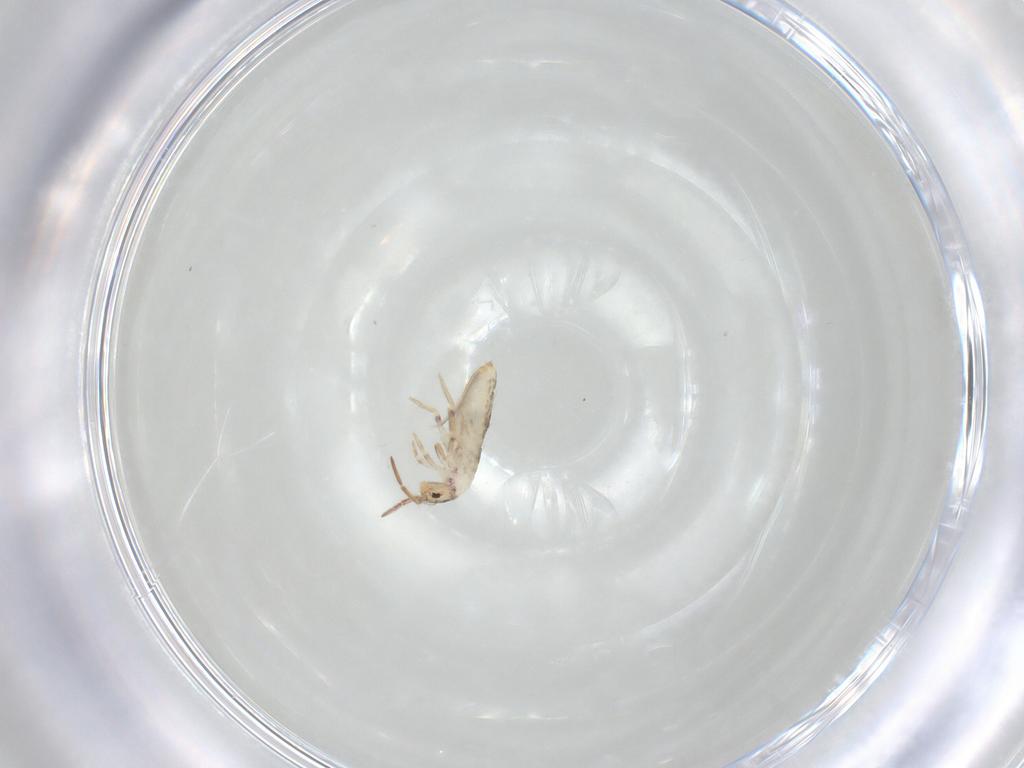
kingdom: Animalia
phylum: Arthropoda
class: Collembola
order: Entomobryomorpha
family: Entomobryidae
